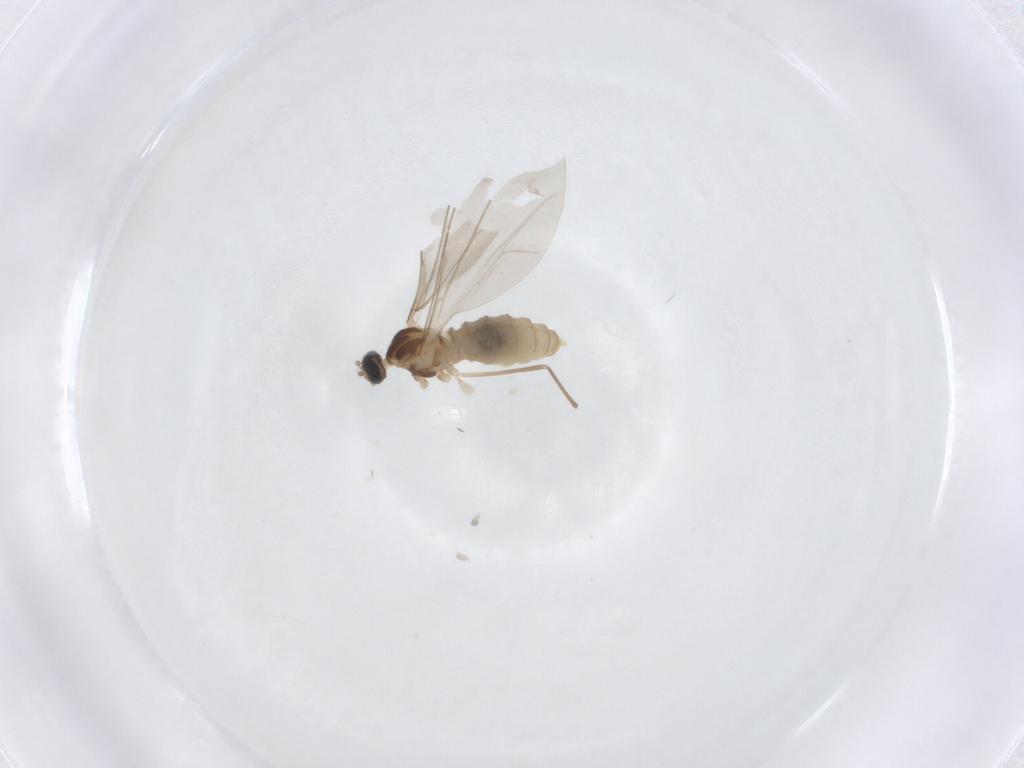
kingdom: Animalia
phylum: Arthropoda
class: Insecta
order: Diptera
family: Cecidomyiidae
